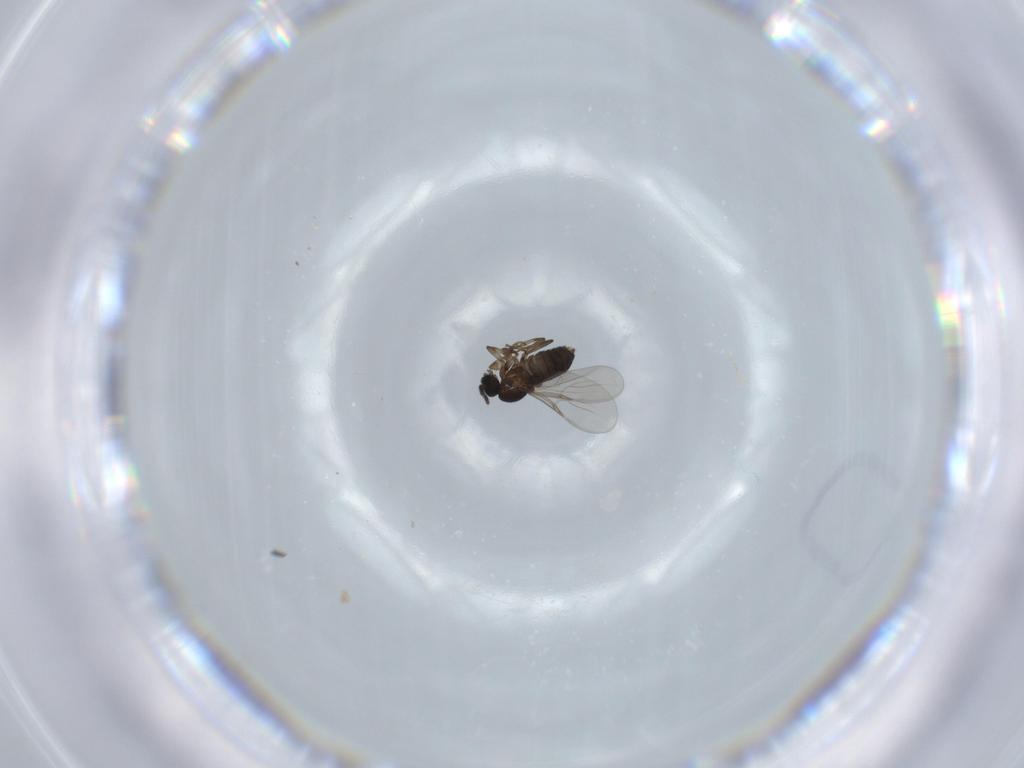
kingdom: Animalia
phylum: Arthropoda
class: Insecta
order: Diptera
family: Scatopsidae
